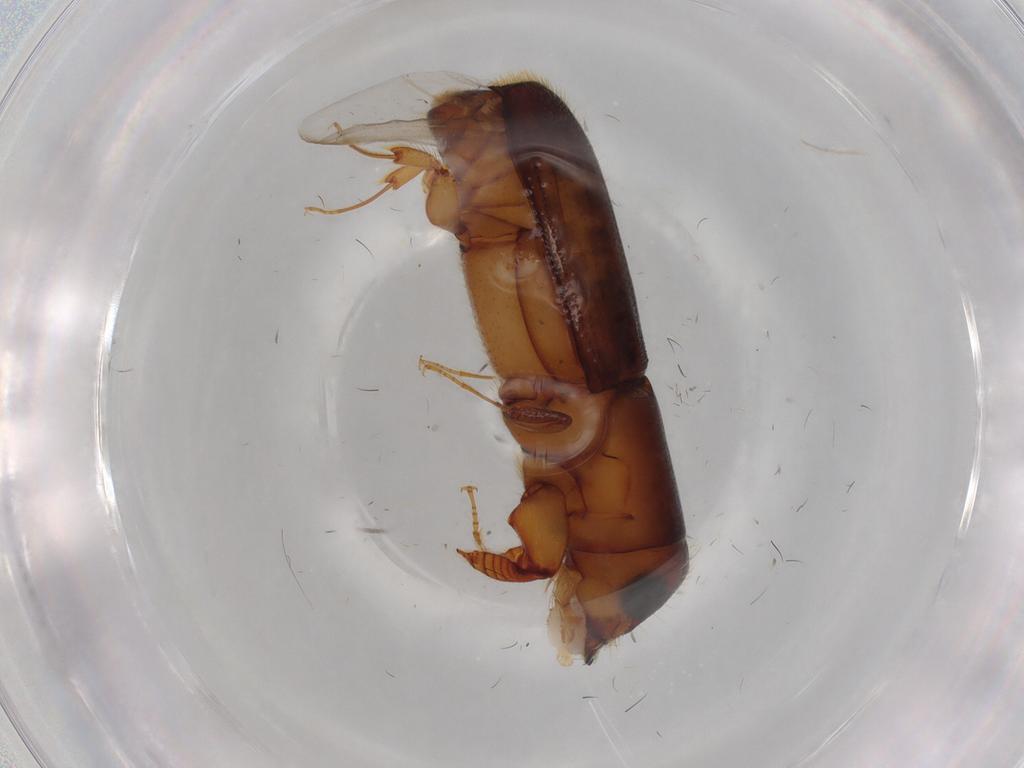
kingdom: Animalia
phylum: Arthropoda
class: Insecta
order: Coleoptera
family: Curculionidae
